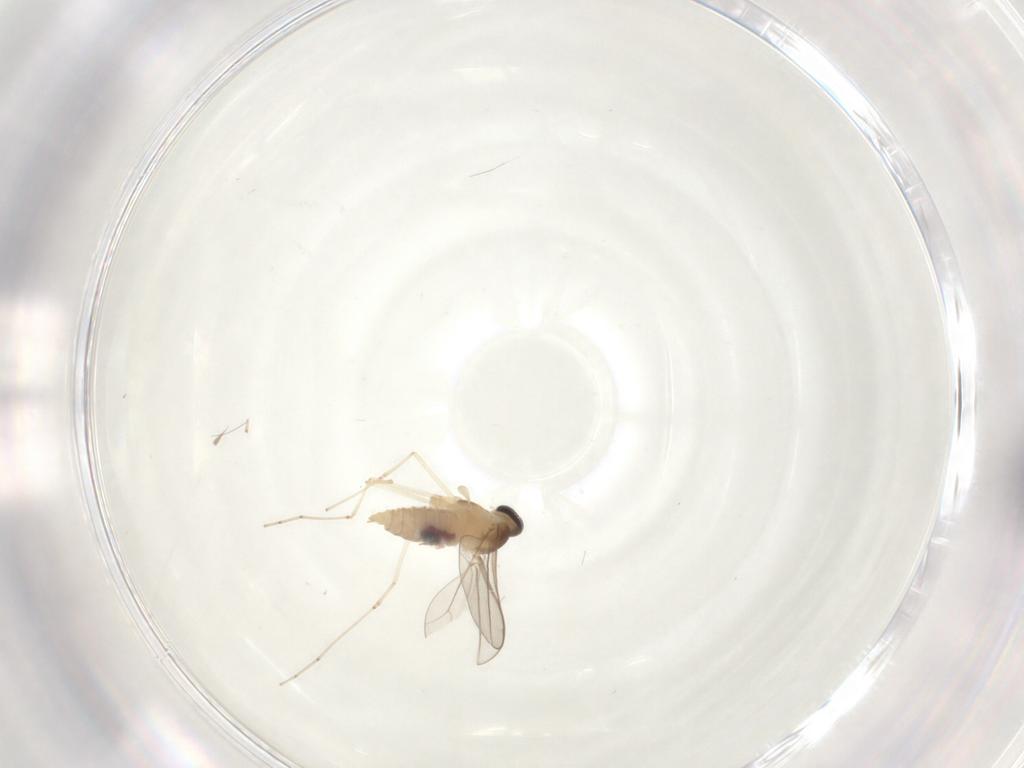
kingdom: Animalia
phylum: Arthropoda
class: Insecta
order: Diptera
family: Cecidomyiidae
